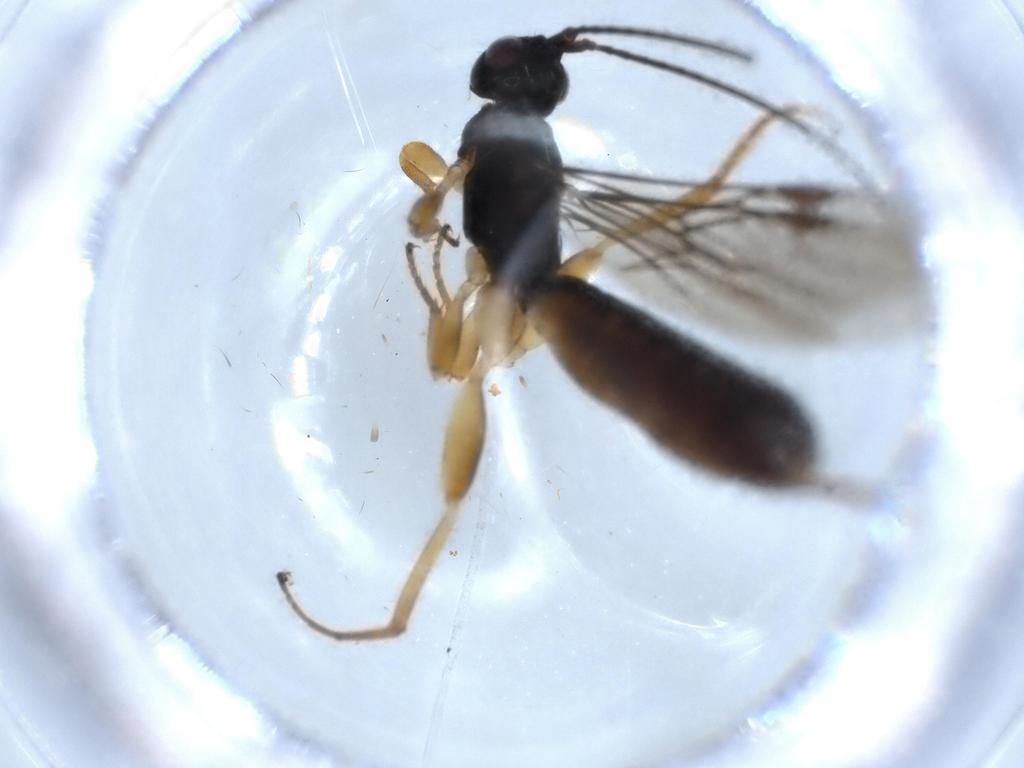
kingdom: Animalia
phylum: Arthropoda
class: Insecta
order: Hymenoptera
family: Braconidae
